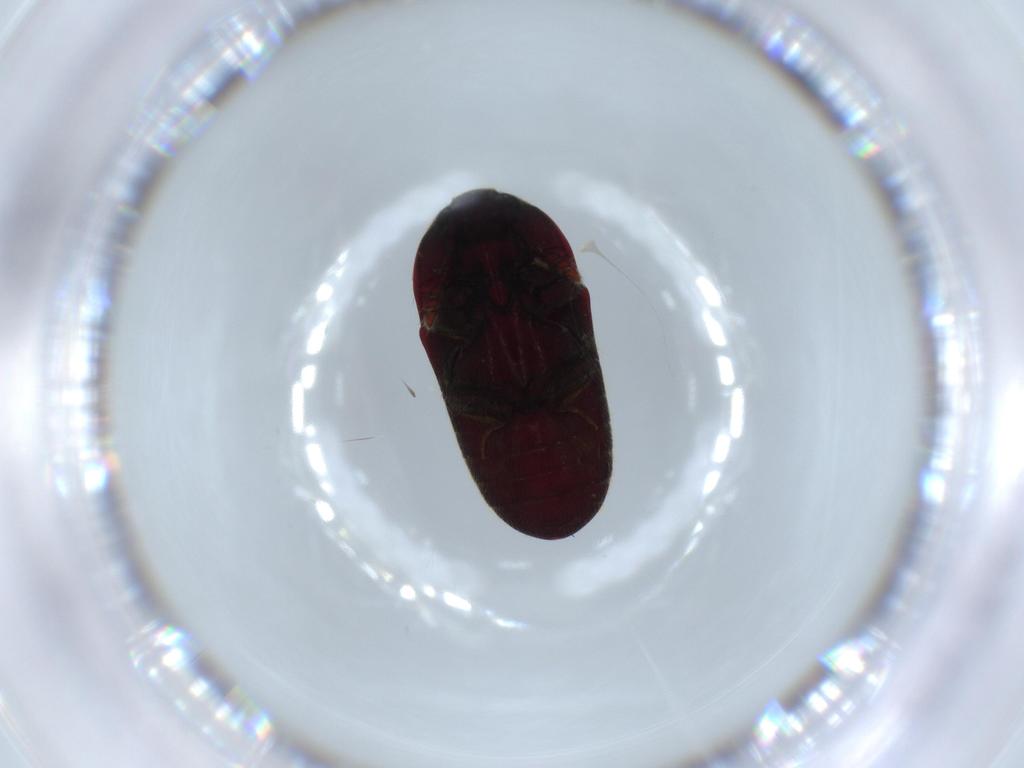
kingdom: Animalia
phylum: Arthropoda
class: Insecta
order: Coleoptera
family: Throscidae
